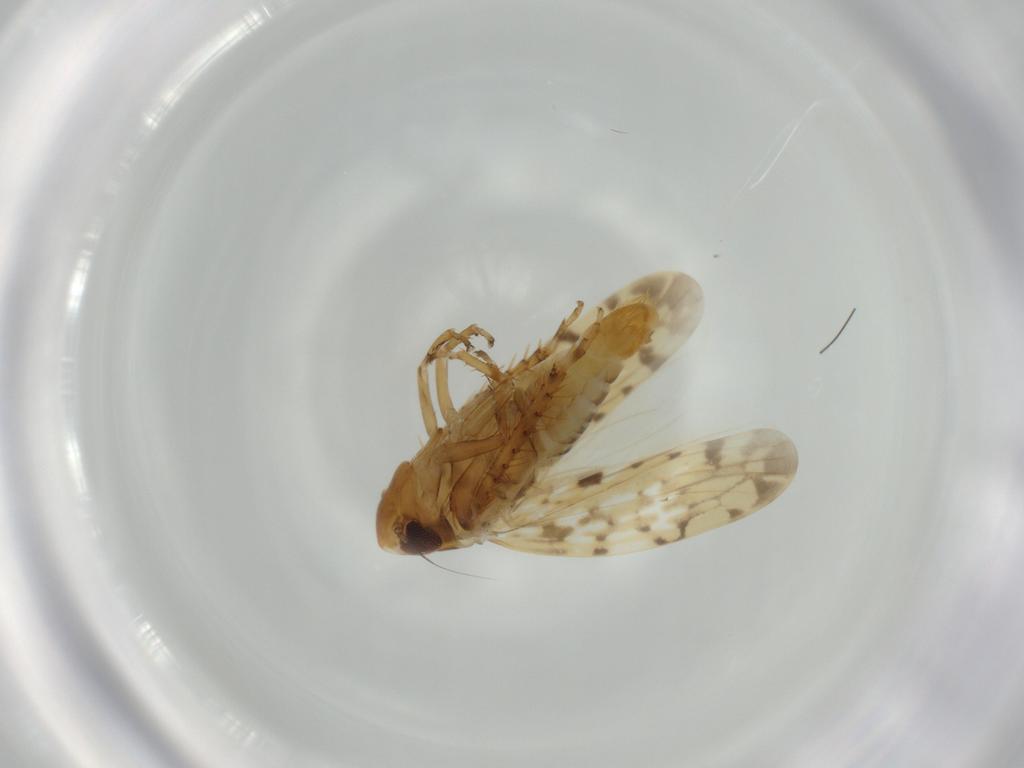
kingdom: Animalia
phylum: Arthropoda
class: Insecta
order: Hemiptera
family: Cicadellidae
